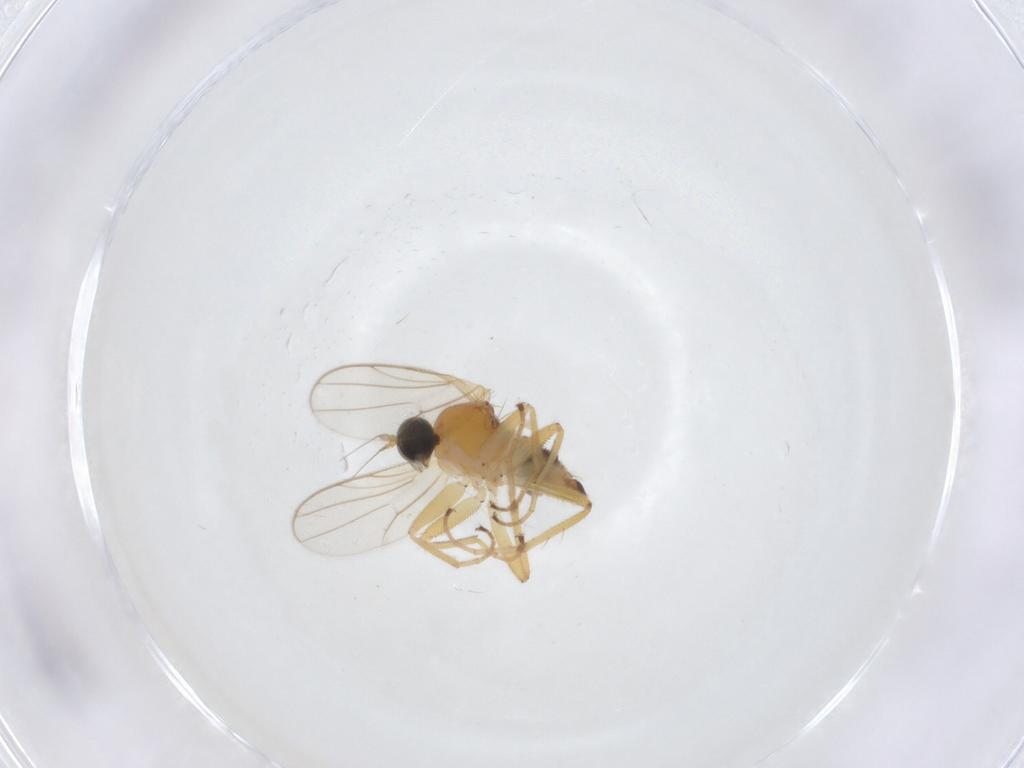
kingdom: Animalia
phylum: Arthropoda
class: Insecta
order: Diptera
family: Hybotidae
